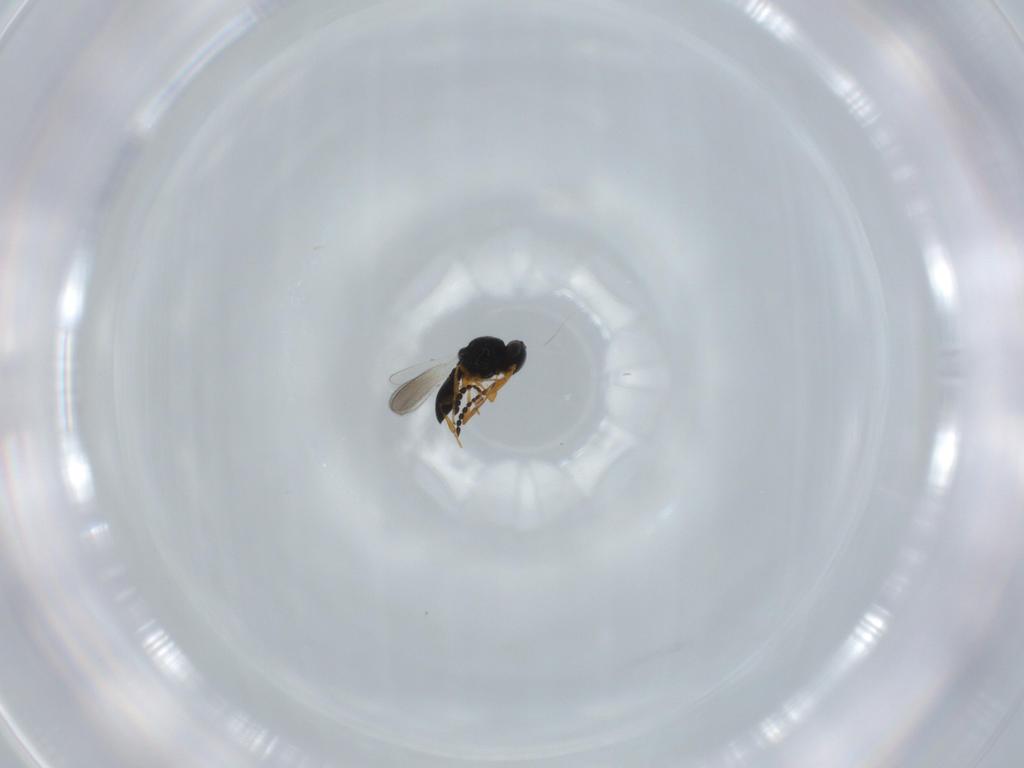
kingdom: Animalia
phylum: Arthropoda
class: Insecta
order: Hymenoptera
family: Platygastridae
